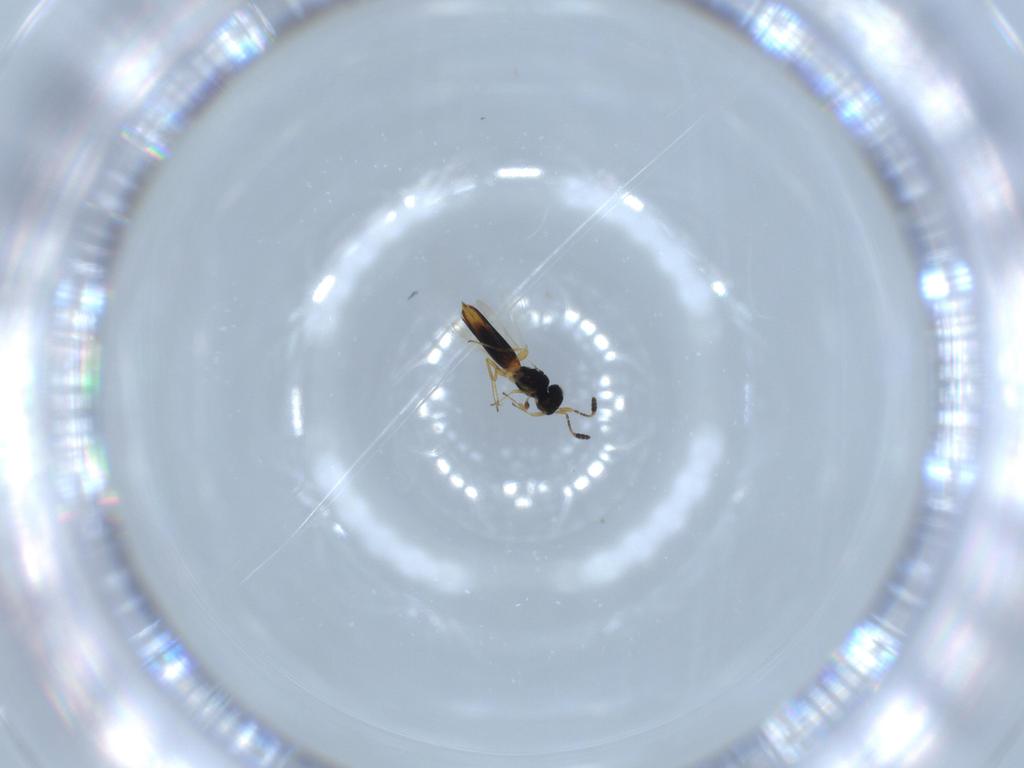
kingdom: Animalia
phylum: Arthropoda
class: Insecta
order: Hymenoptera
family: Scelionidae
